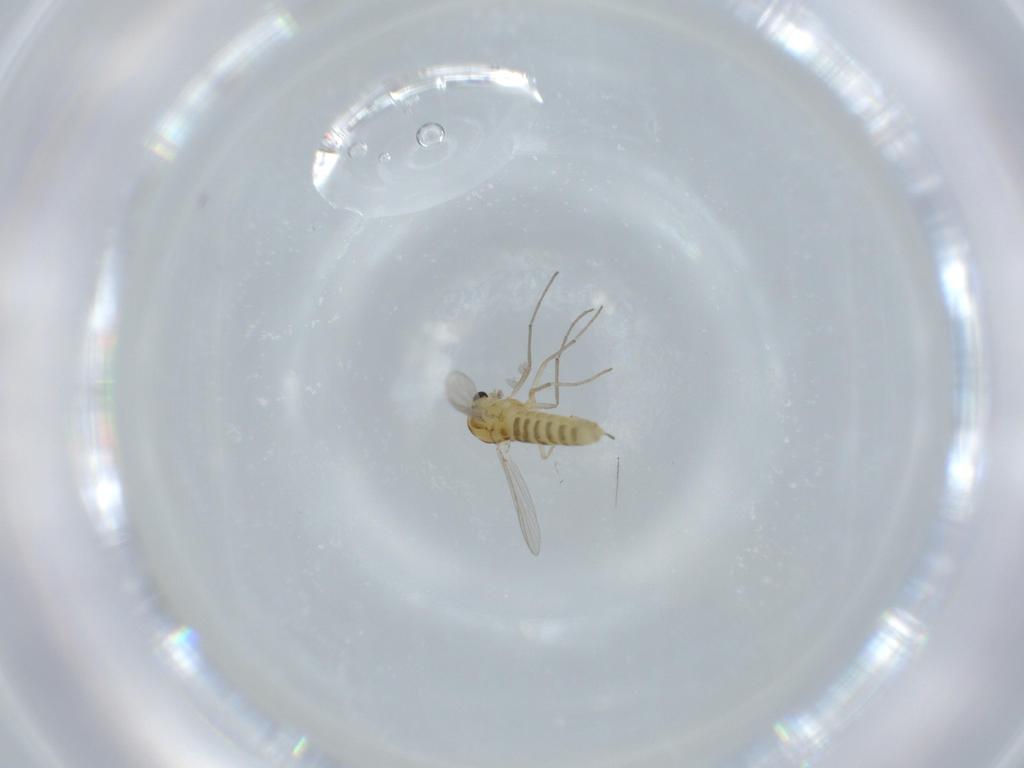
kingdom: Animalia
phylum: Arthropoda
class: Insecta
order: Diptera
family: Chironomidae
